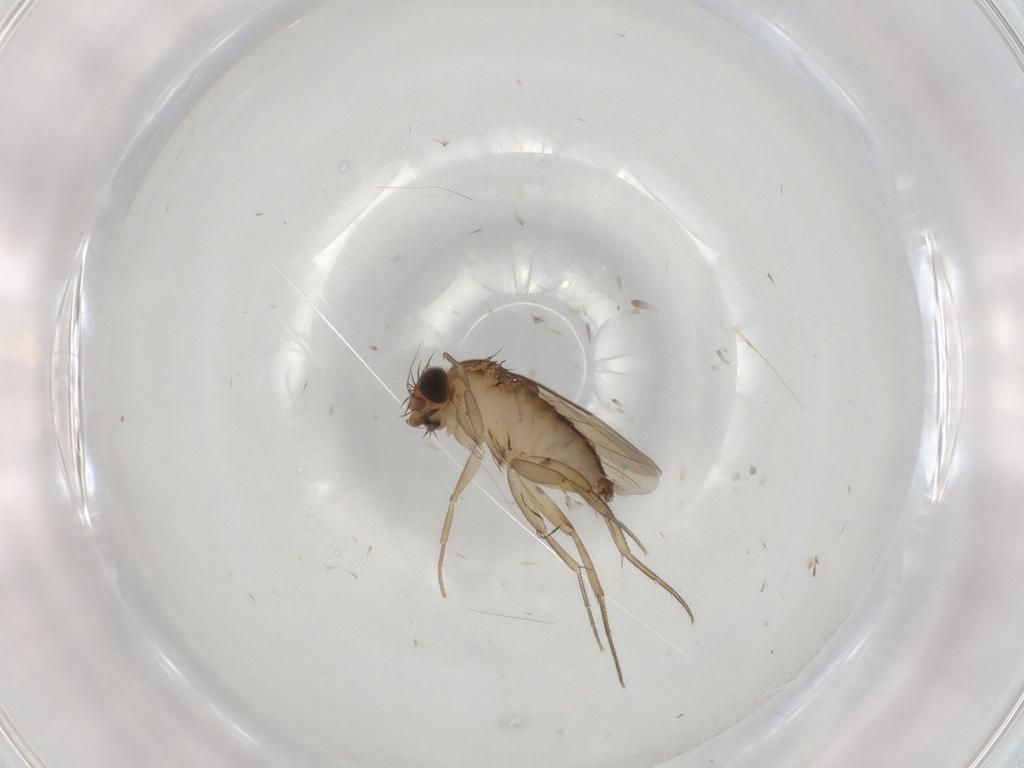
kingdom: Animalia
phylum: Arthropoda
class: Insecta
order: Diptera
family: Phoridae
